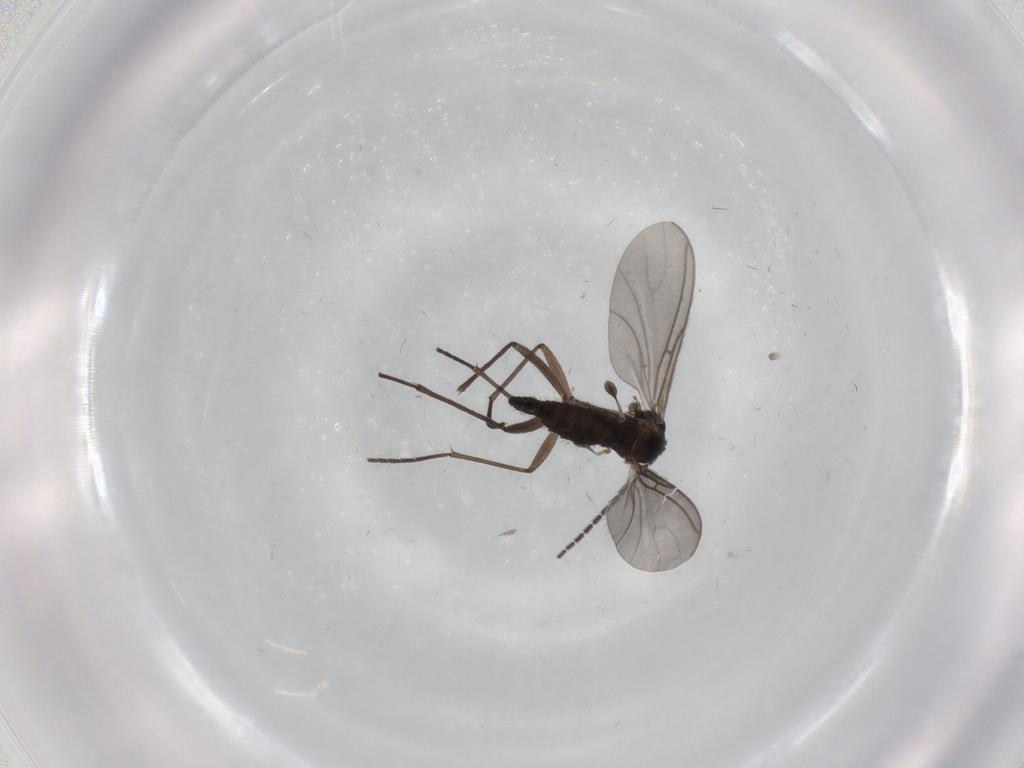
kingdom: Animalia
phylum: Arthropoda
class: Insecta
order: Diptera
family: Sciaridae
